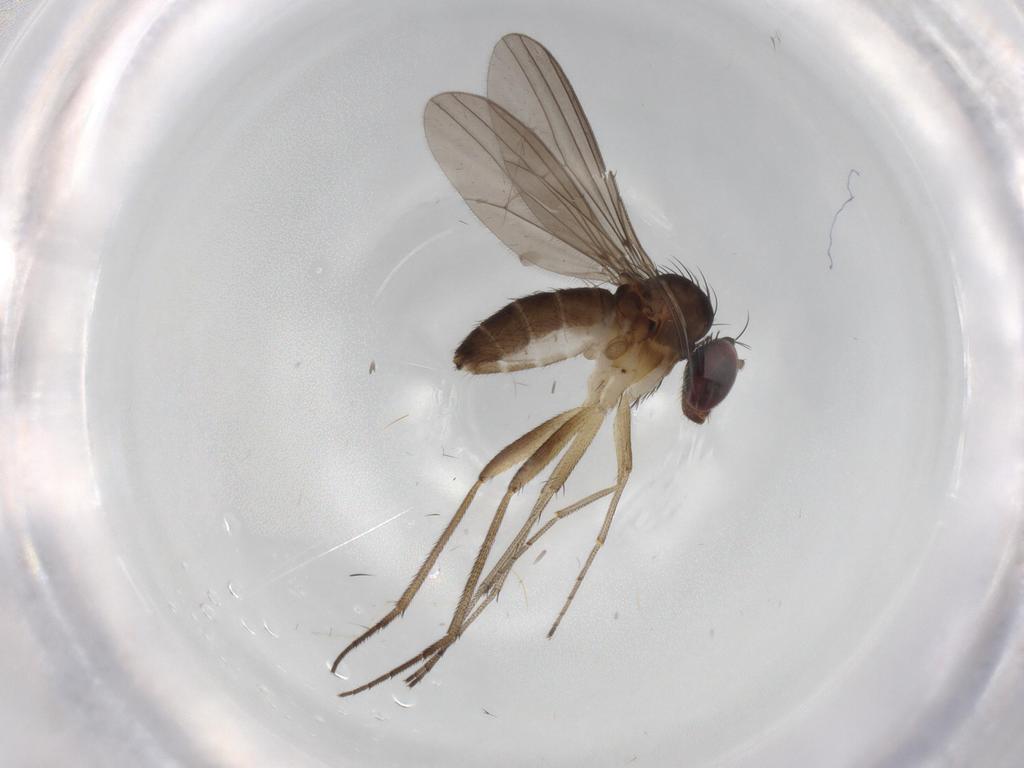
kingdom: Animalia
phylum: Arthropoda
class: Insecta
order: Diptera
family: Dolichopodidae
